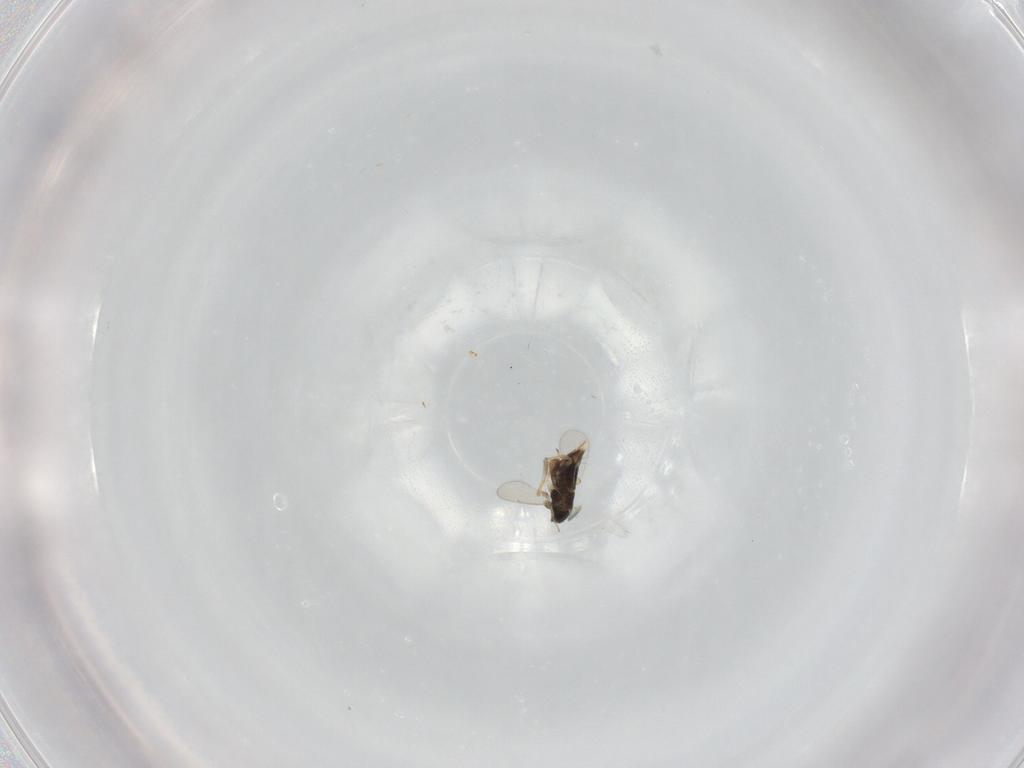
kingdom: Animalia
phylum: Arthropoda
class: Insecta
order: Hymenoptera
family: Aphelinidae
